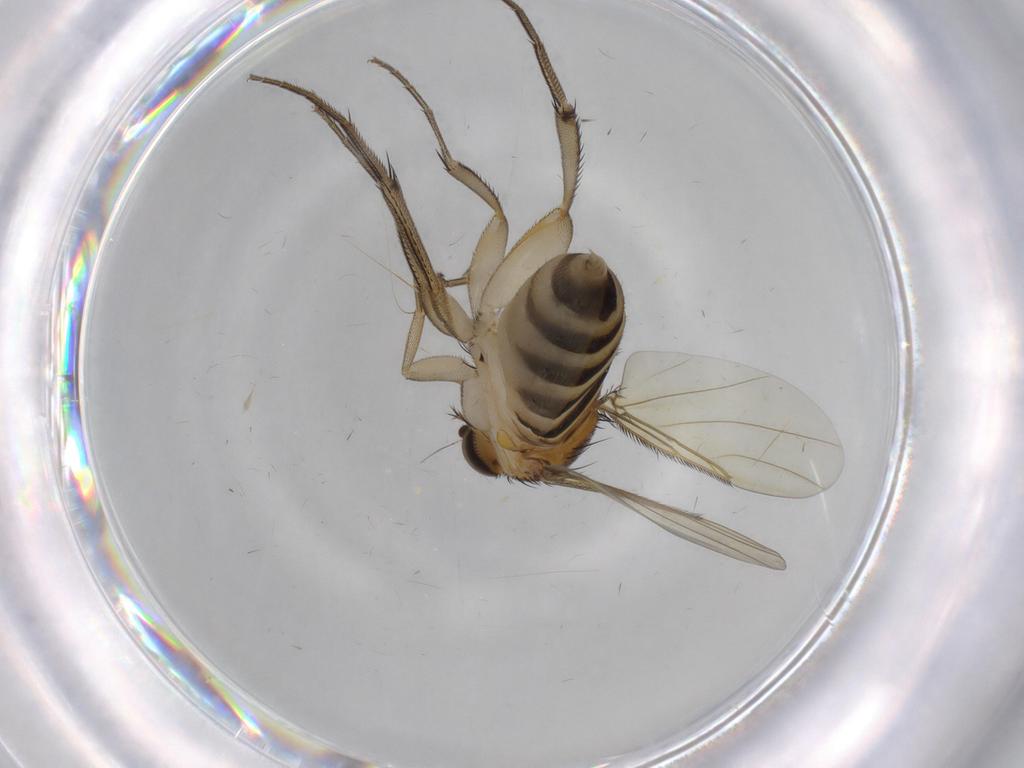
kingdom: Animalia
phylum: Arthropoda
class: Insecta
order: Diptera
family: Phoridae
